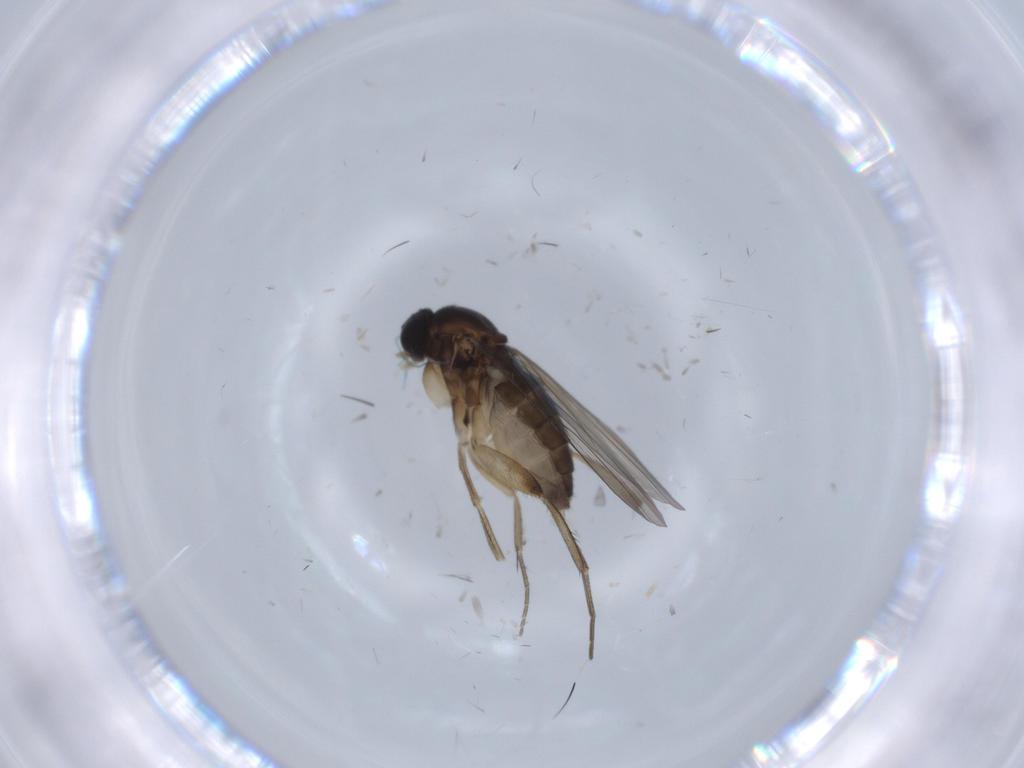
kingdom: Animalia
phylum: Arthropoda
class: Insecta
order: Diptera
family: Phoridae
